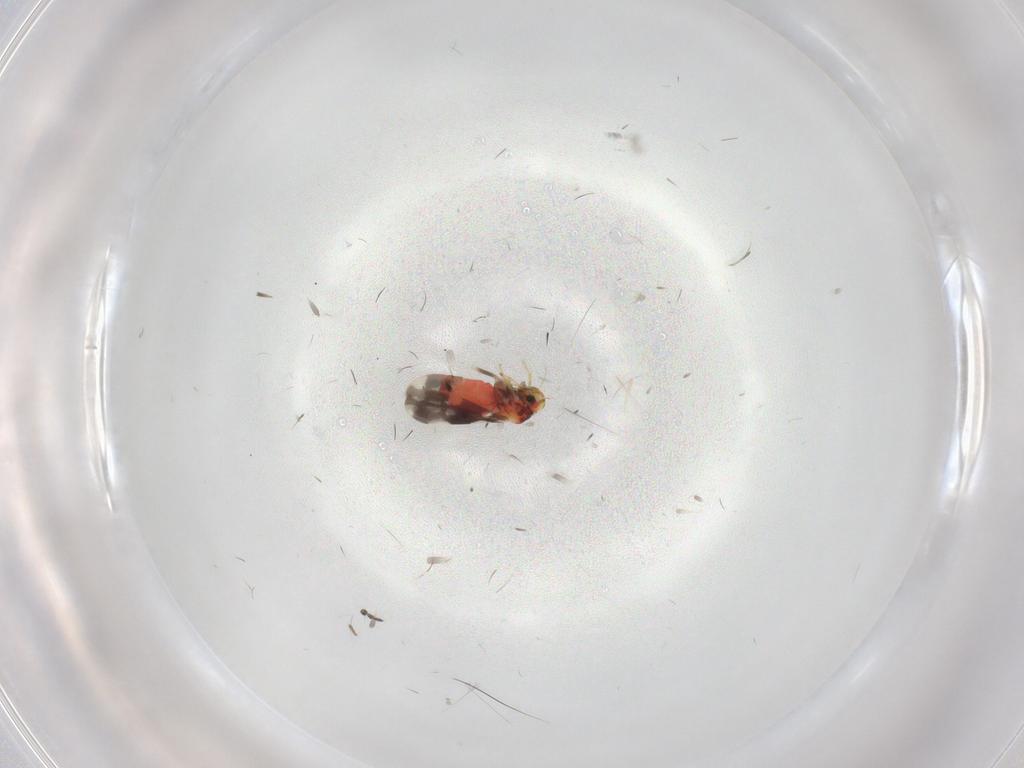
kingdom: Animalia
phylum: Arthropoda
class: Insecta
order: Hemiptera
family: Aleyrodidae
